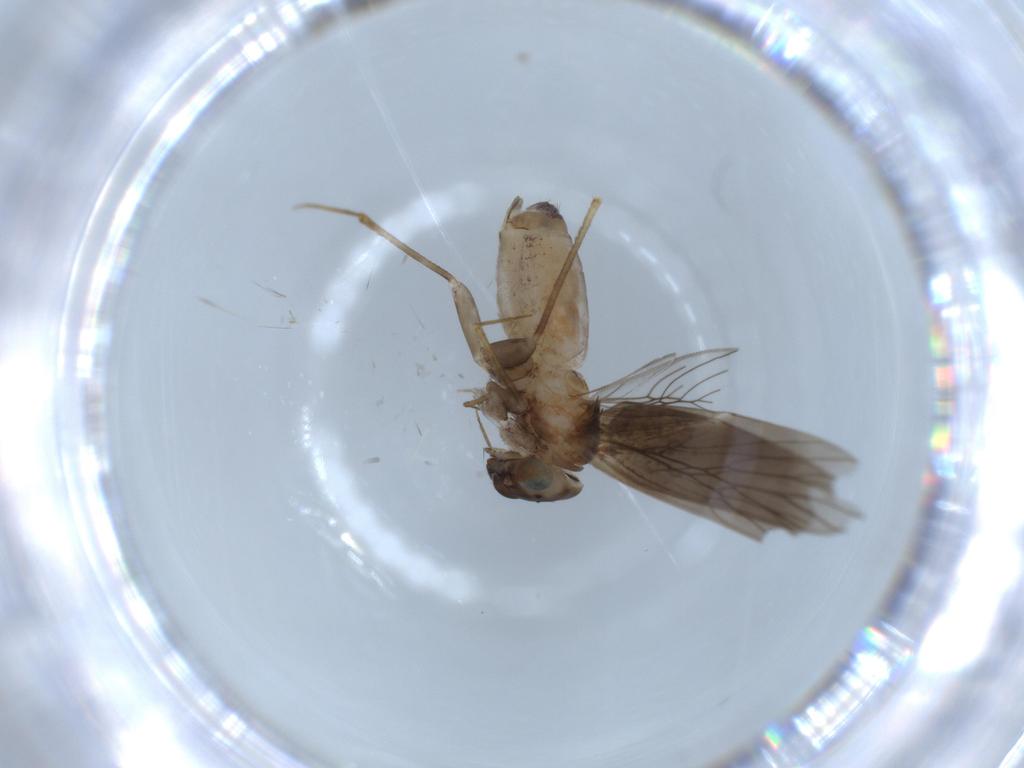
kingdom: Animalia
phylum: Arthropoda
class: Insecta
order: Psocodea
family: Lepidopsocidae
